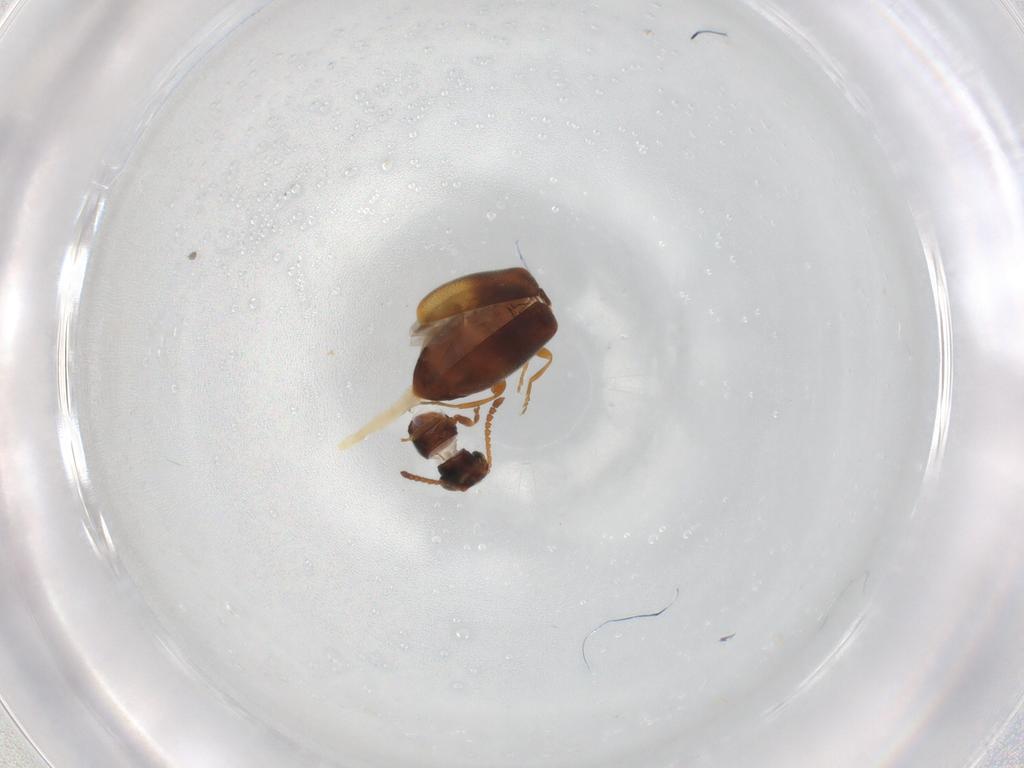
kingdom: Animalia
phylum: Arthropoda
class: Insecta
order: Coleoptera
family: Aderidae
